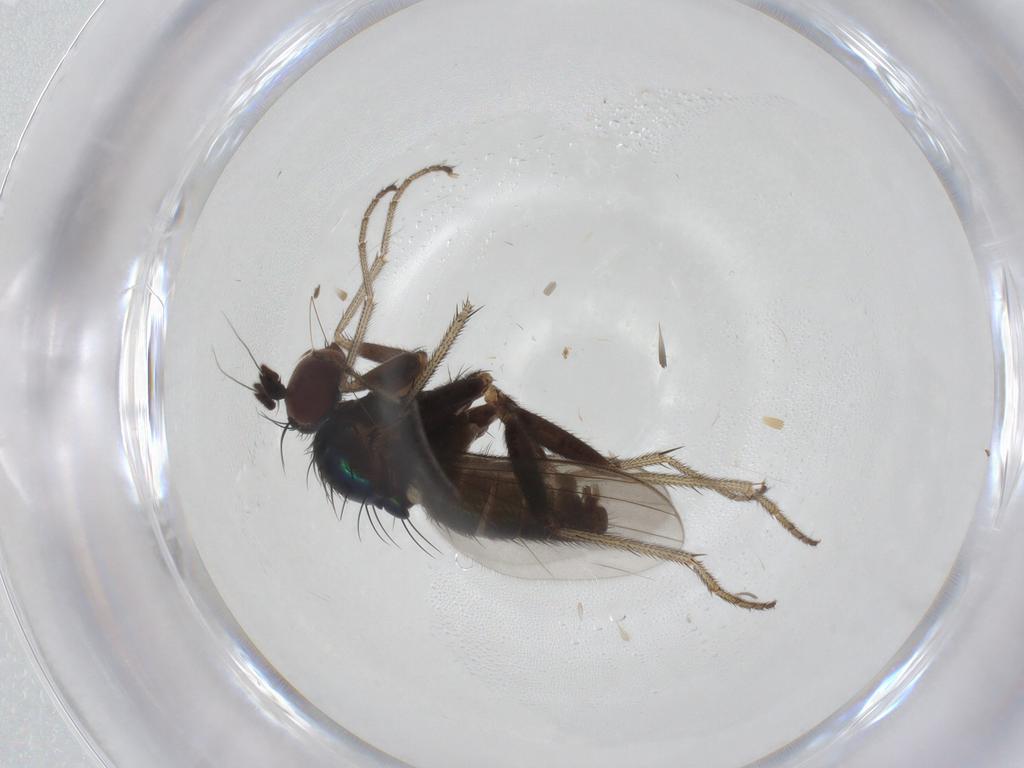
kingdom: Animalia
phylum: Arthropoda
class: Insecta
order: Diptera
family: Dolichopodidae
